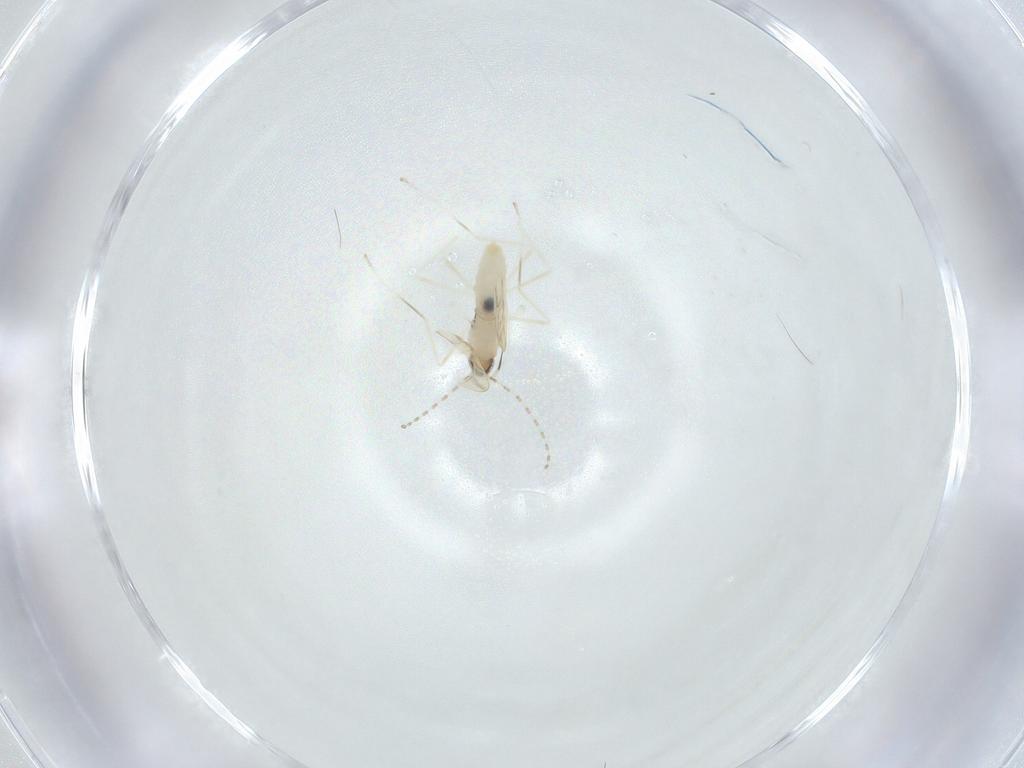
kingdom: Animalia
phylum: Arthropoda
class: Insecta
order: Diptera
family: Cecidomyiidae
